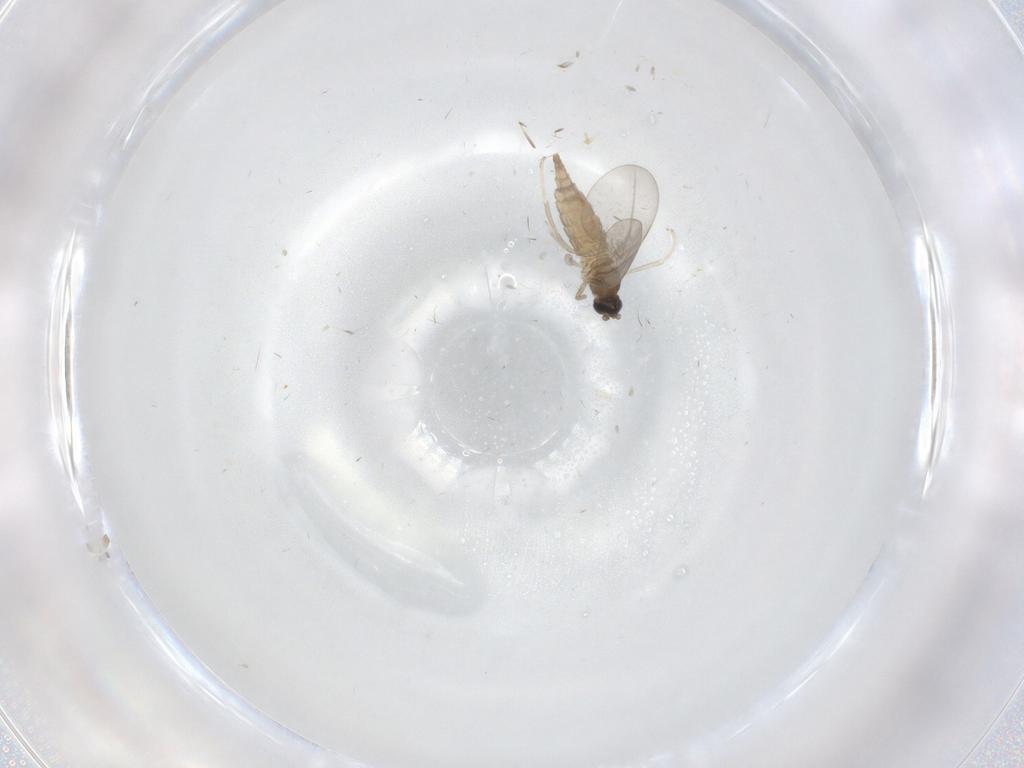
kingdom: Animalia
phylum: Arthropoda
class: Insecta
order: Diptera
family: Cecidomyiidae
